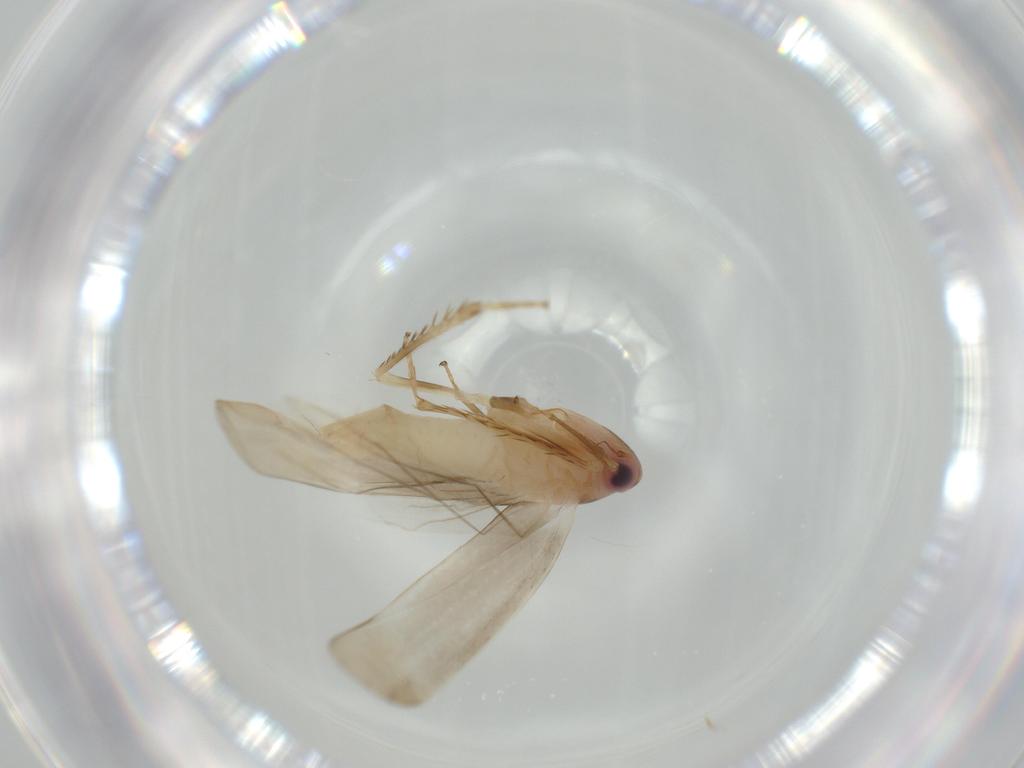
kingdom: Animalia
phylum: Arthropoda
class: Insecta
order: Hemiptera
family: Cicadellidae
